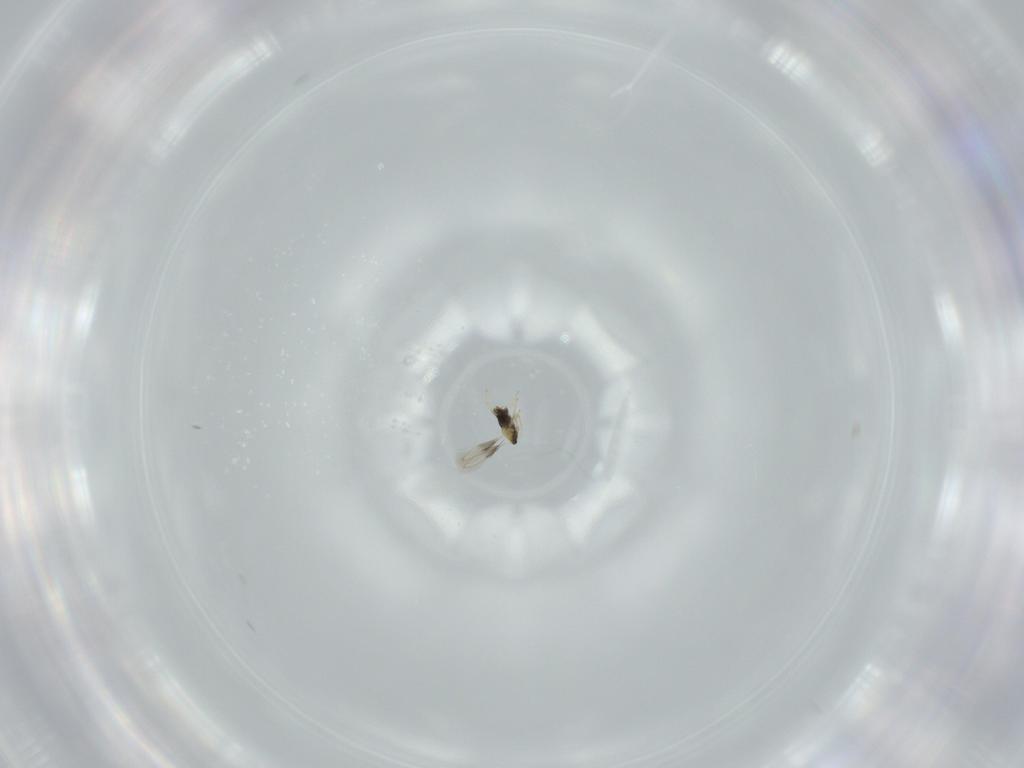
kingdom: Animalia
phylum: Arthropoda
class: Insecta
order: Hymenoptera
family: Aphelinidae
